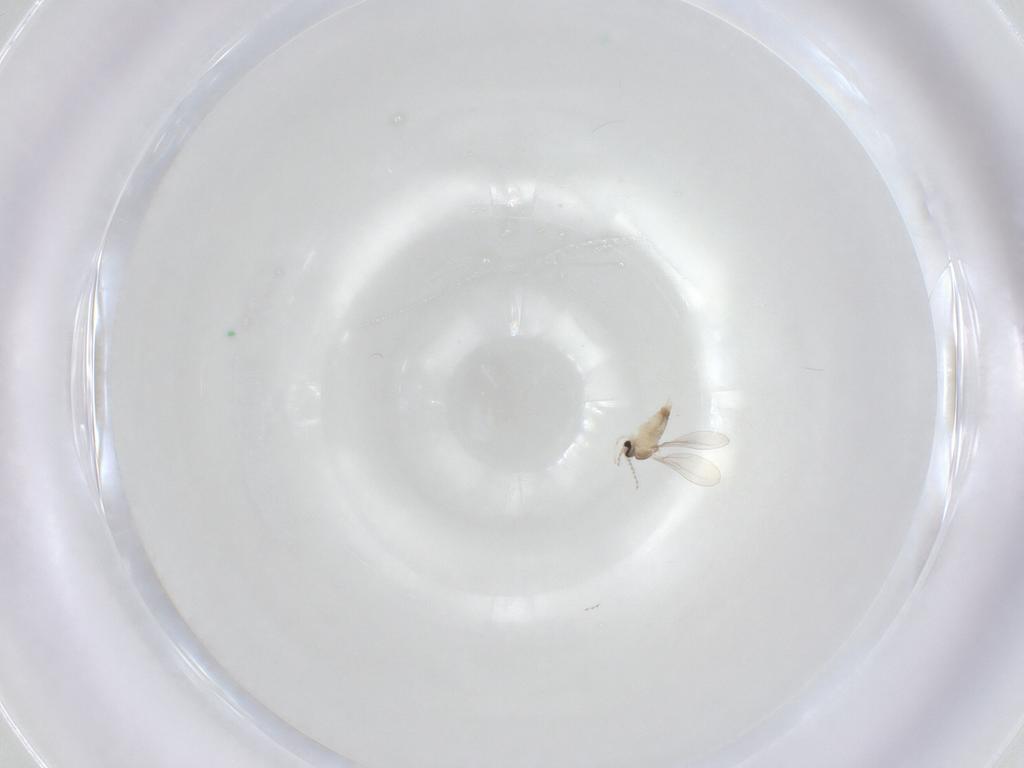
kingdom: Animalia
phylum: Arthropoda
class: Insecta
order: Diptera
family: Cecidomyiidae
